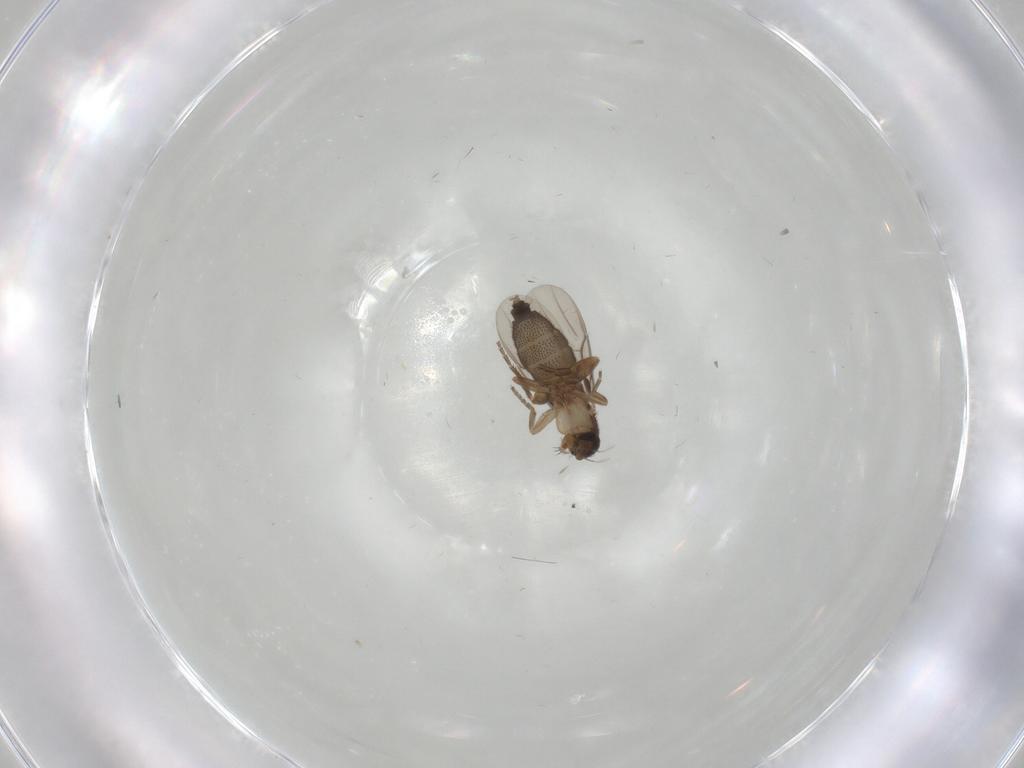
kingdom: Animalia
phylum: Arthropoda
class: Insecta
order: Diptera
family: Phoridae
